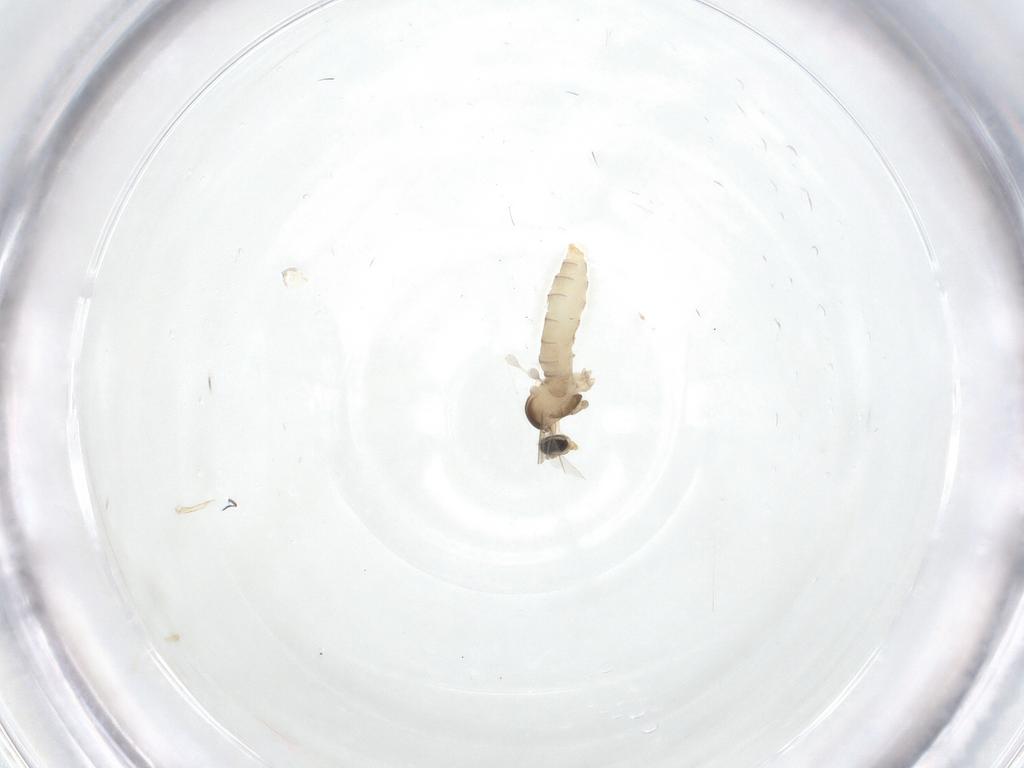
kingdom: Animalia
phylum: Arthropoda
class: Insecta
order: Diptera
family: Cecidomyiidae
